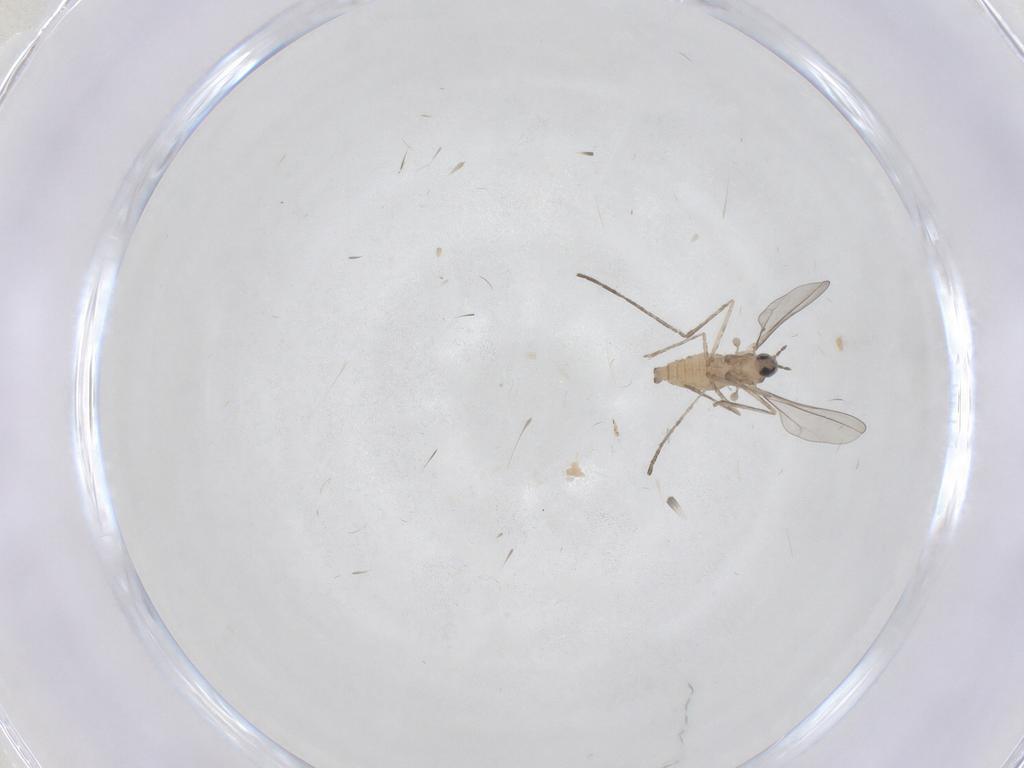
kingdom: Animalia
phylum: Arthropoda
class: Insecta
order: Diptera
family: Cecidomyiidae
